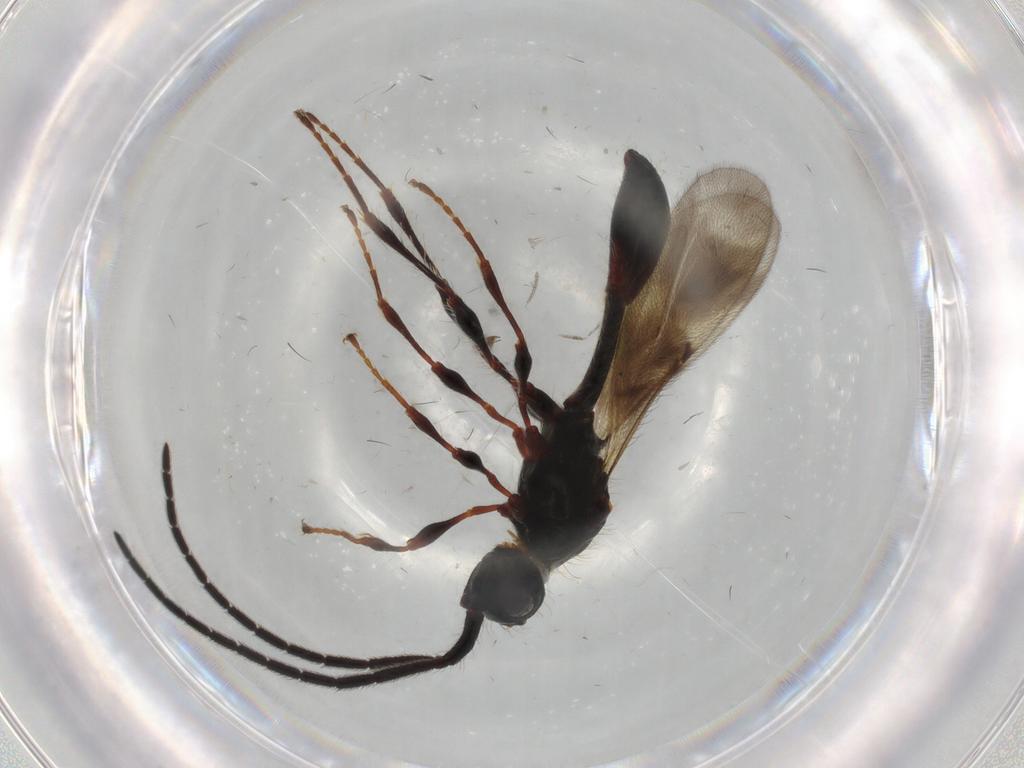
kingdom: Animalia
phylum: Arthropoda
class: Insecta
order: Hymenoptera
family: Diapriidae
